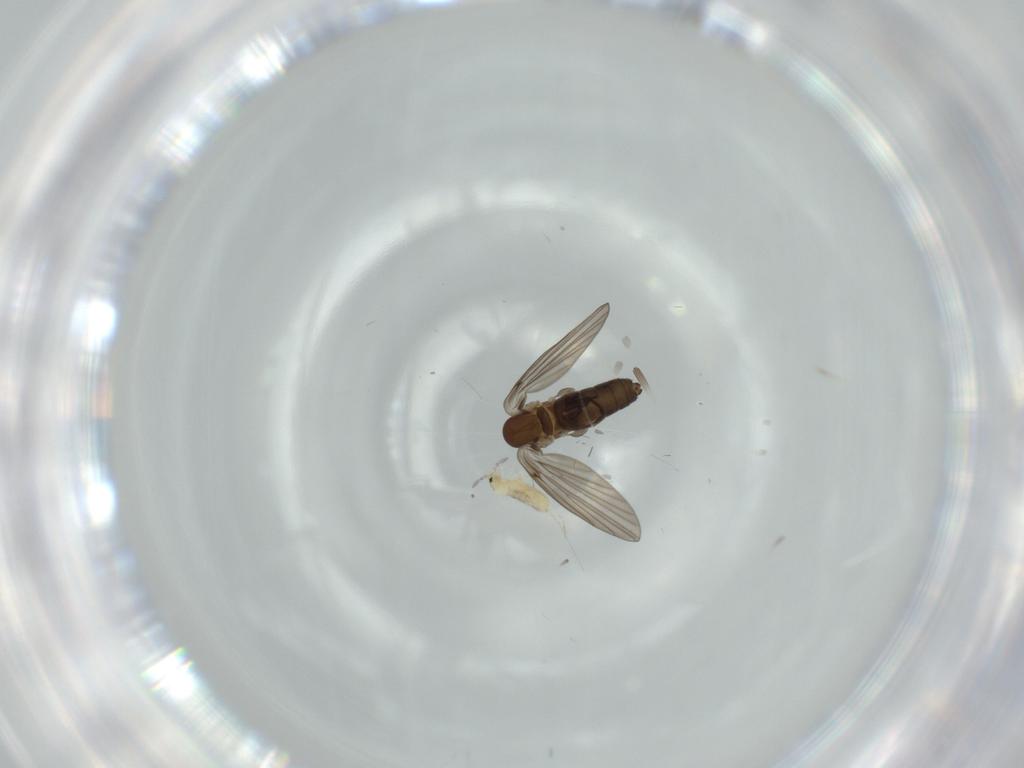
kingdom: Animalia
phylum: Arthropoda
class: Insecta
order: Diptera
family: Psychodidae
